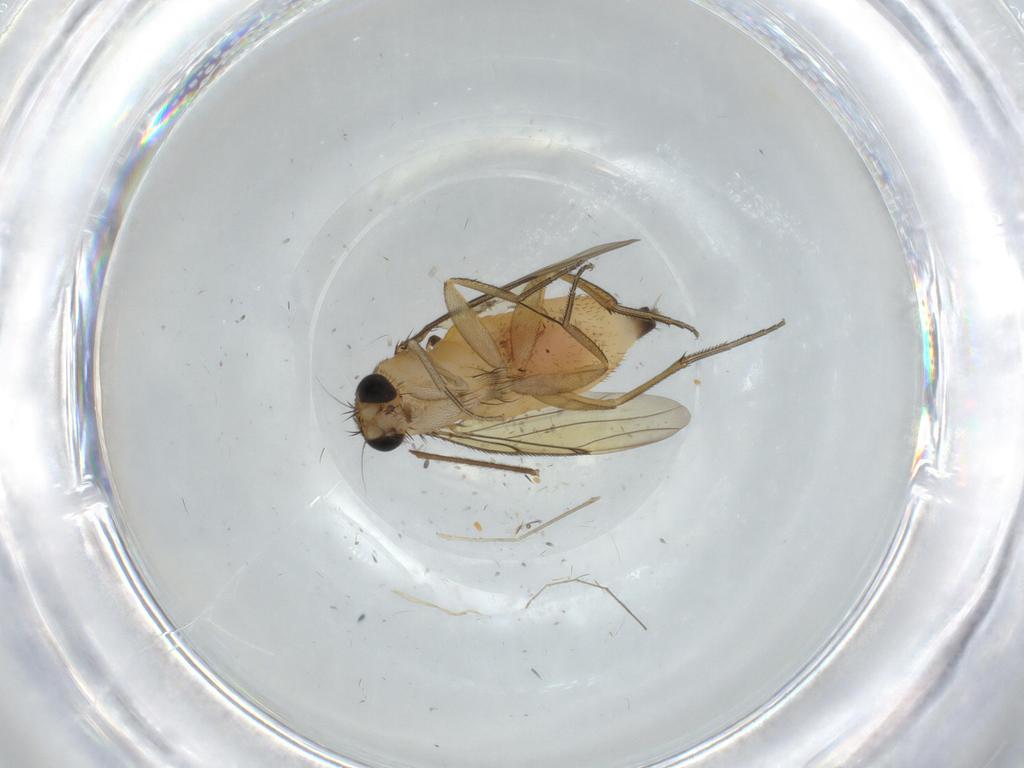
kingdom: Animalia
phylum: Arthropoda
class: Insecta
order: Diptera
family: Chironomidae
